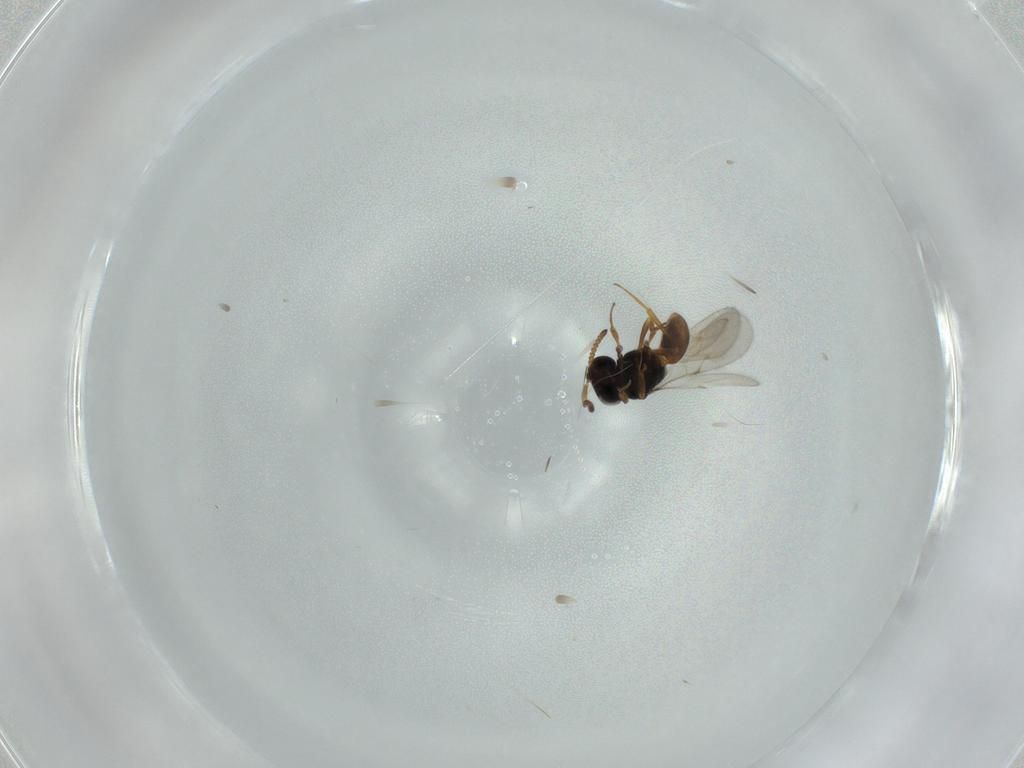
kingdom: Animalia
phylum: Arthropoda
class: Insecta
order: Hymenoptera
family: Scelionidae
